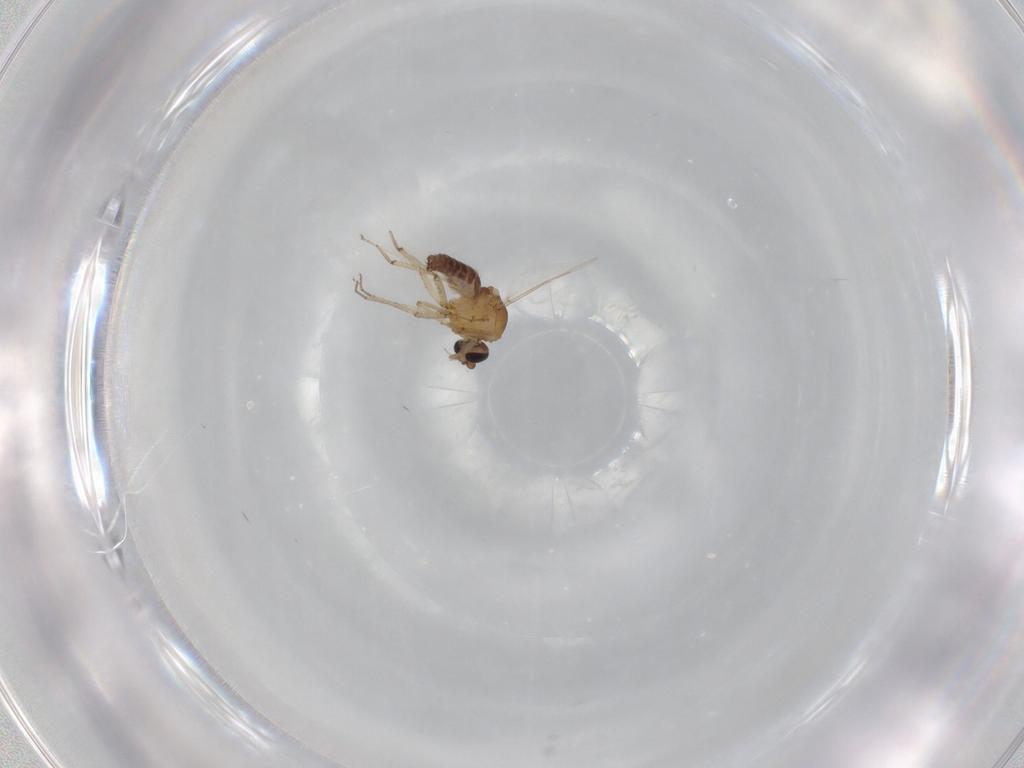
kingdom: Animalia
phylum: Arthropoda
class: Insecta
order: Diptera
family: Ceratopogonidae
